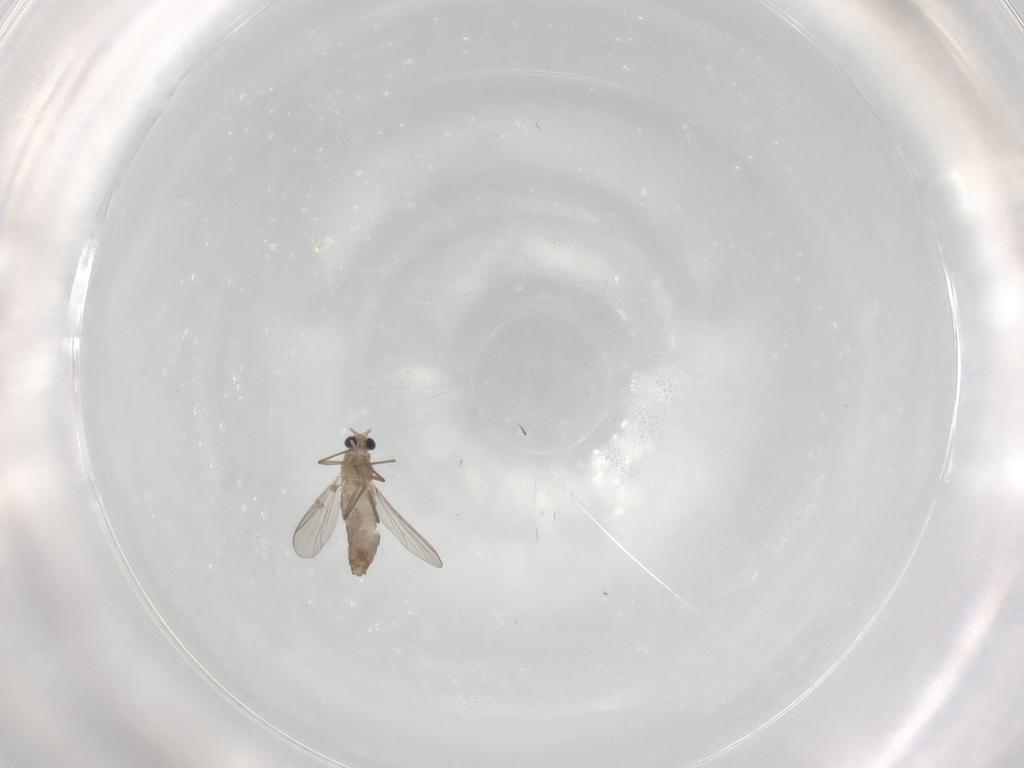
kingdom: Animalia
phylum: Arthropoda
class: Insecta
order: Diptera
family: Chironomidae
